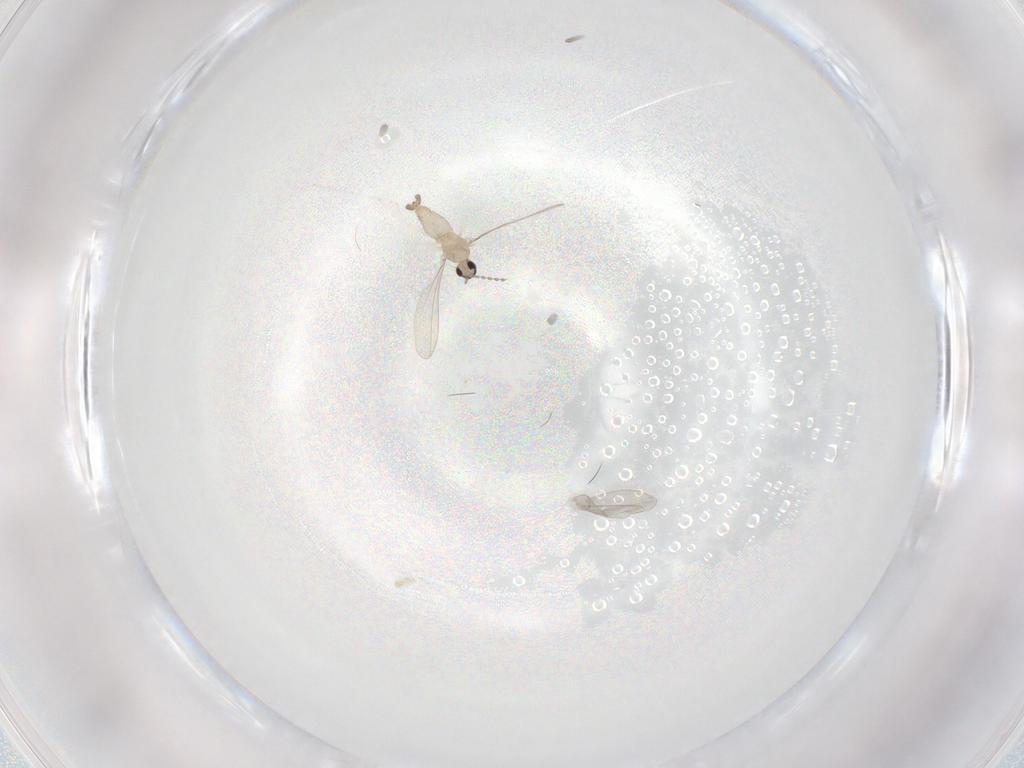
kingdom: Animalia
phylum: Arthropoda
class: Insecta
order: Diptera
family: Cecidomyiidae
